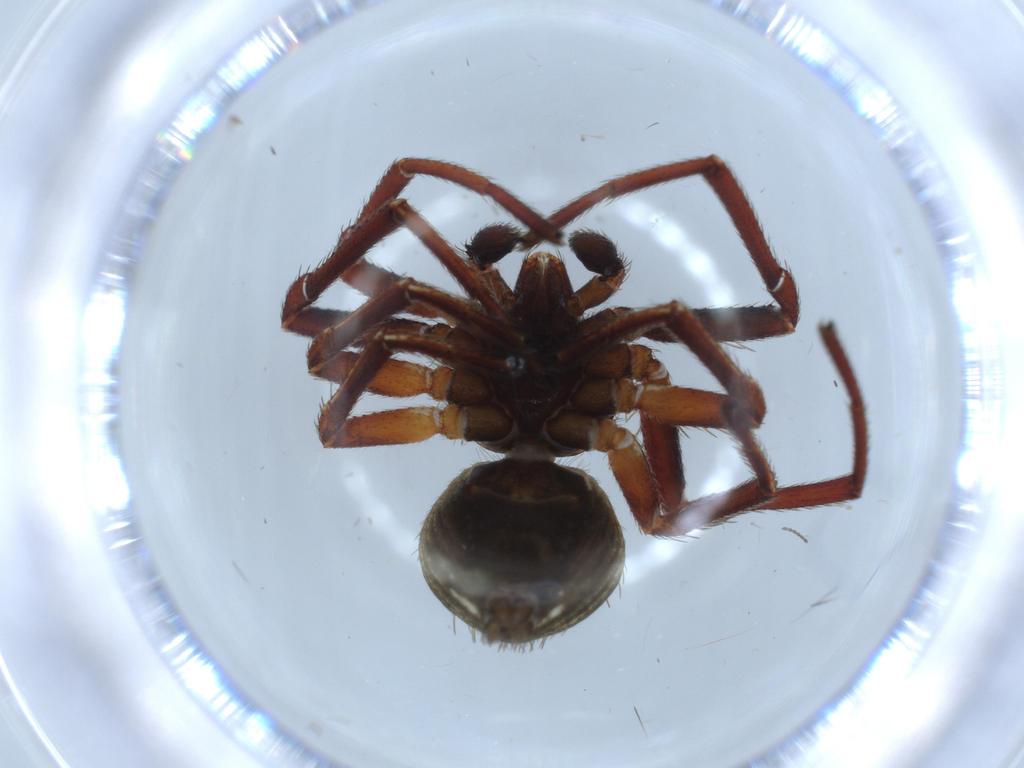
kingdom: Animalia
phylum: Arthropoda
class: Arachnida
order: Araneae
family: Thomisidae
